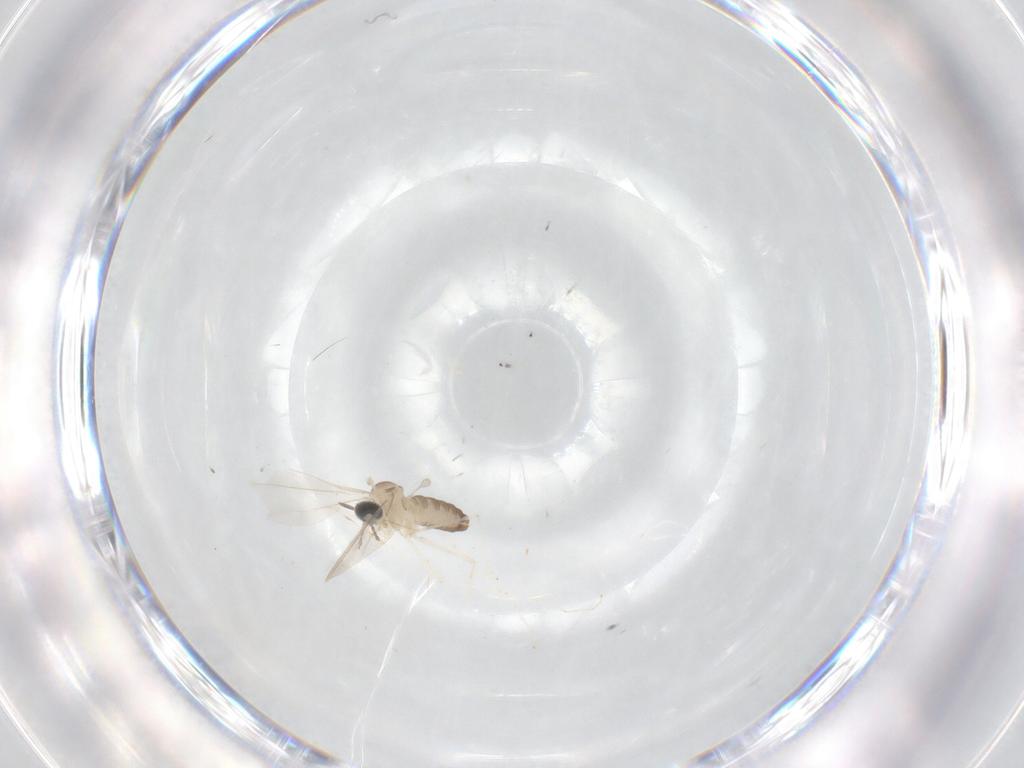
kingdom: Animalia
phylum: Arthropoda
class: Insecta
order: Diptera
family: Cecidomyiidae
